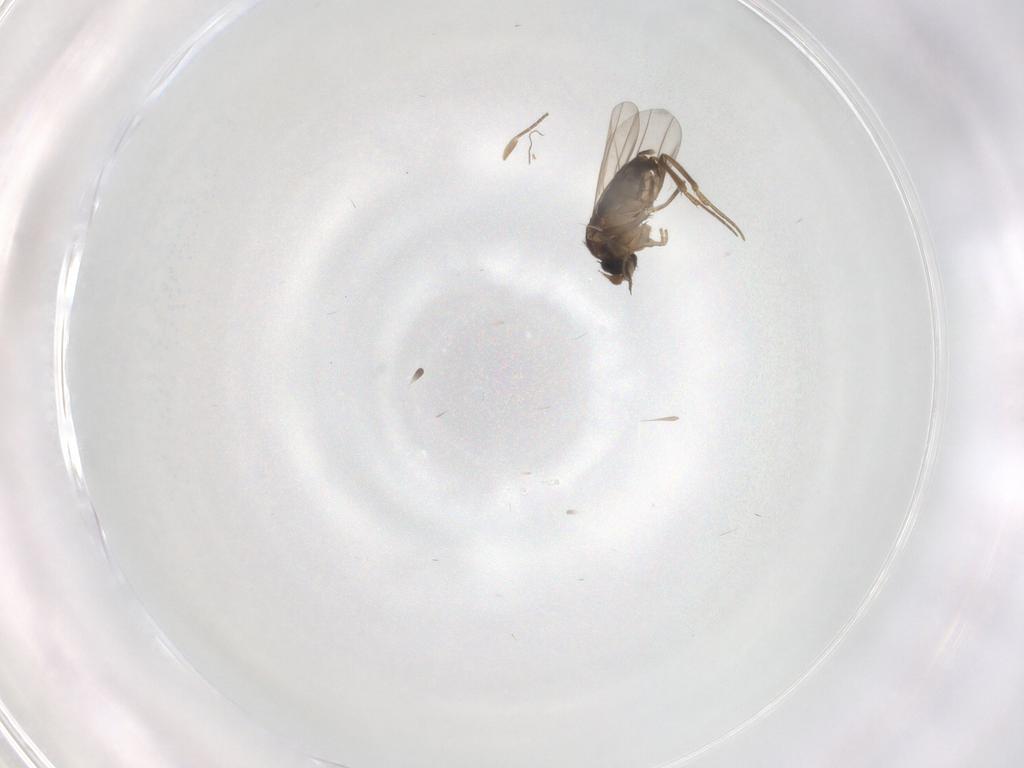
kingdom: Animalia
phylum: Arthropoda
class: Insecta
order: Diptera
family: Phoridae
